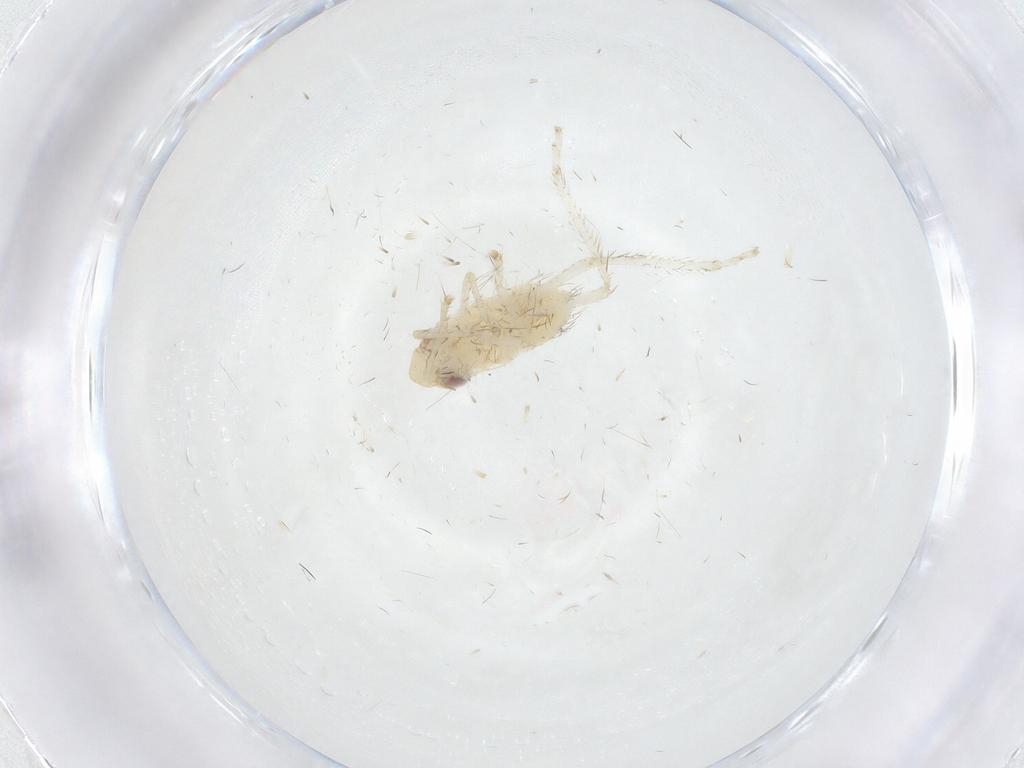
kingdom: Animalia
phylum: Arthropoda
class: Insecta
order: Hemiptera
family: Cicadellidae
